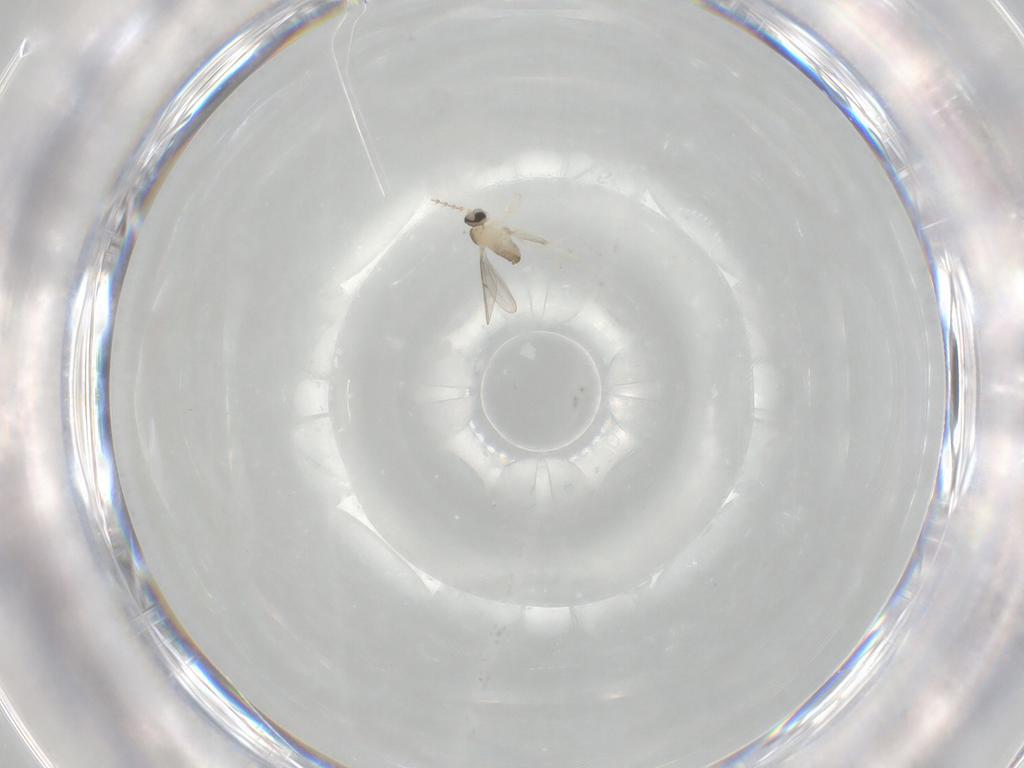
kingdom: Animalia
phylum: Arthropoda
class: Insecta
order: Diptera
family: Cecidomyiidae
